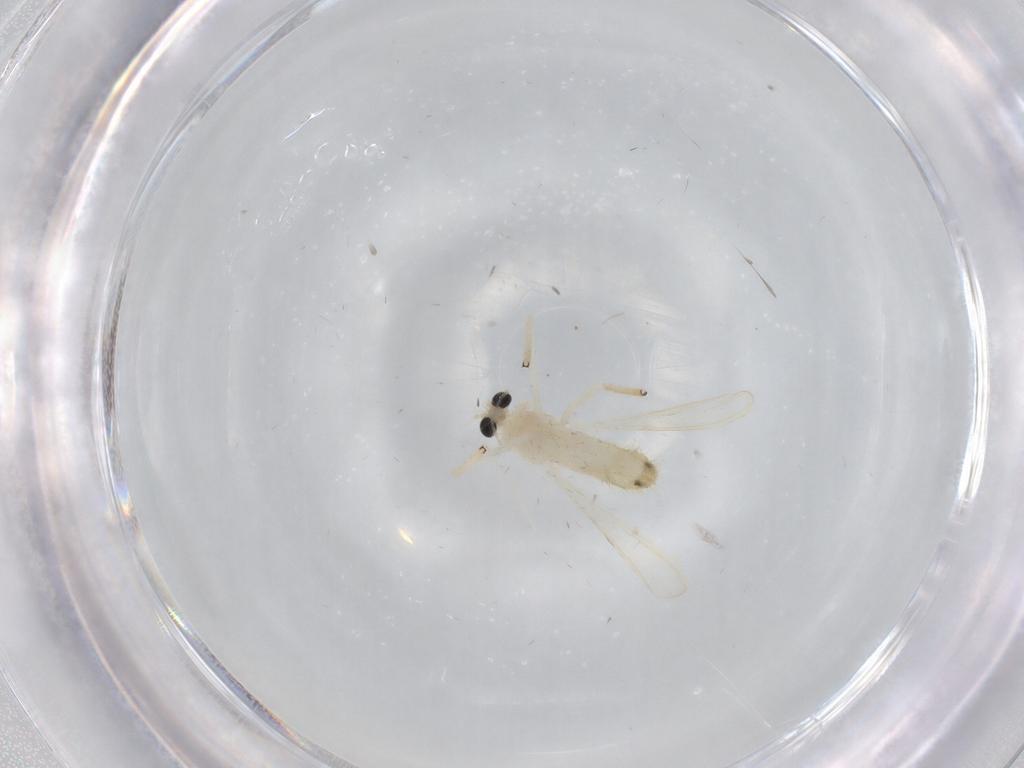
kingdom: Animalia
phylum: Arthropoda
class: Insecta
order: Diptera
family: Chironomidae
